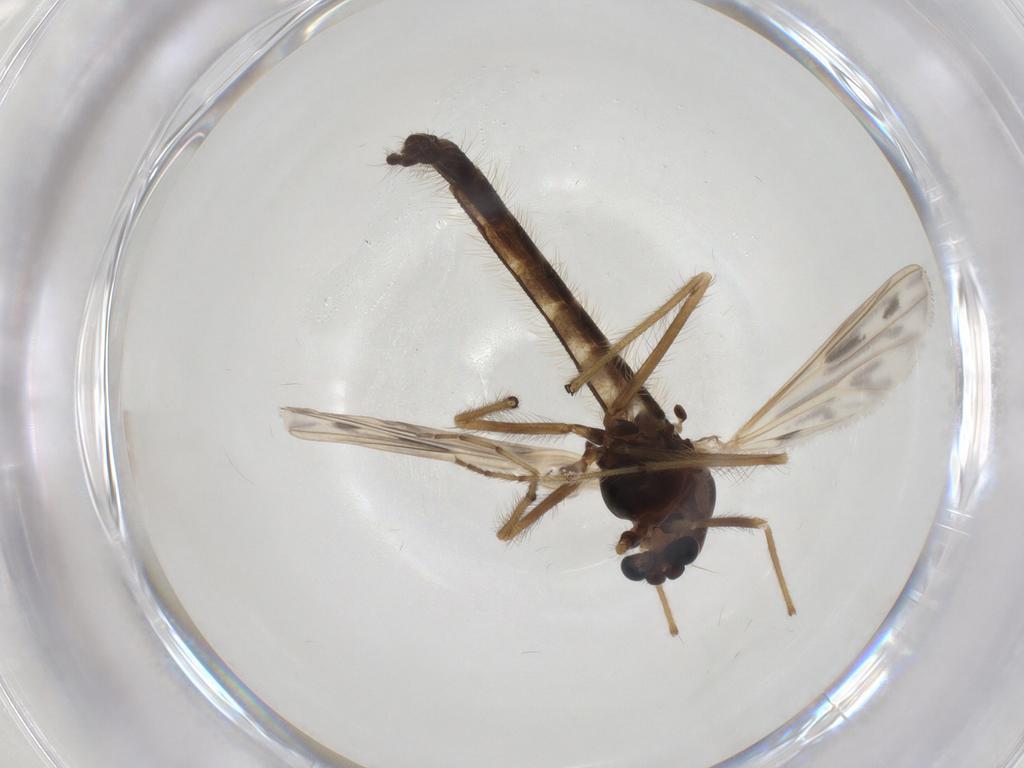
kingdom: Animalia
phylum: Arthropoda
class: Insecta
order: Diptera
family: Chironomidae
